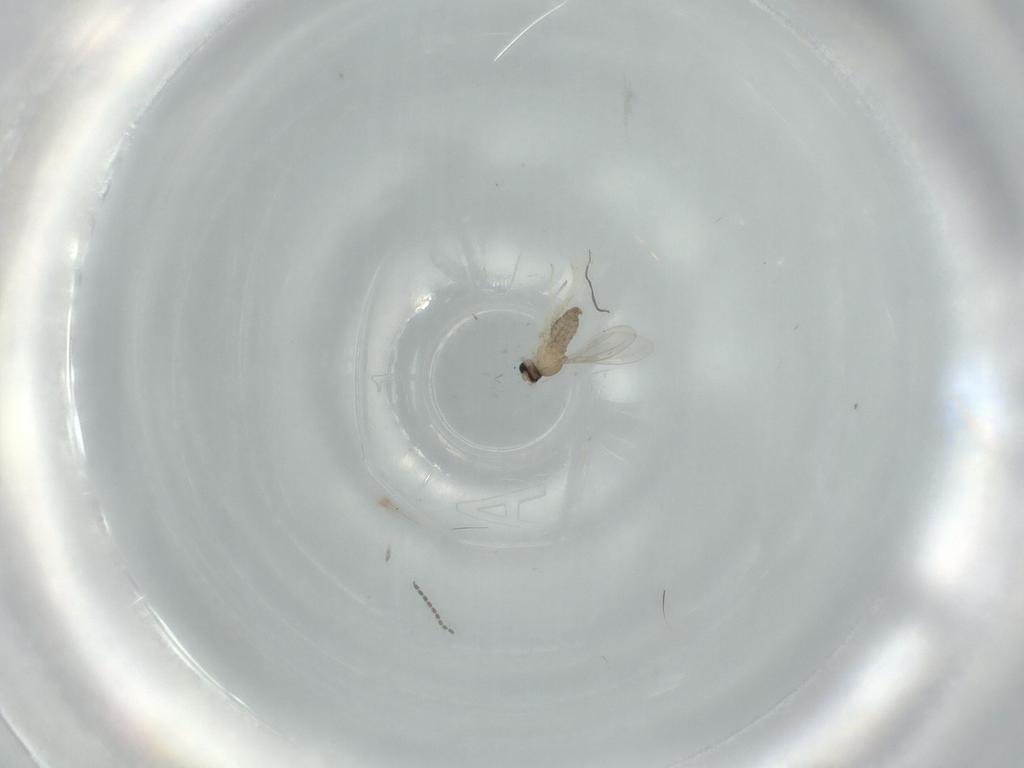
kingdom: Animalia
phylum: Arthropoda
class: Insecta
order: Diptera
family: Cecidomyiidae
